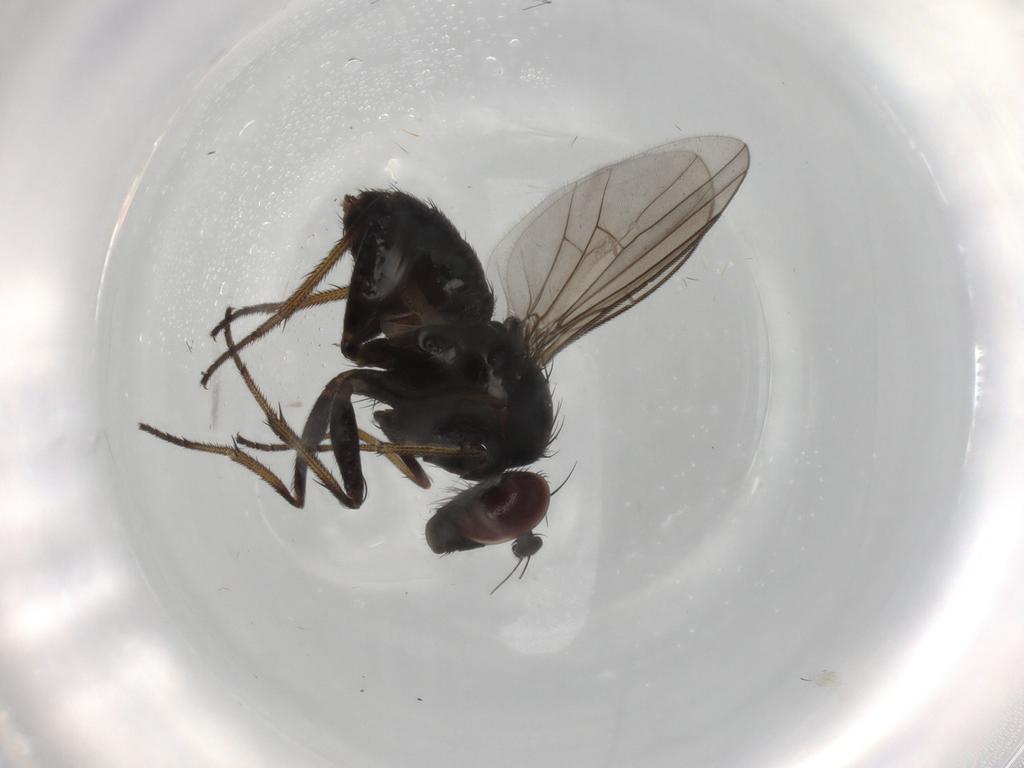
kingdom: Animalia
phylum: Arthropoda
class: Insecta
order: Diptera
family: Dolichopodidae
